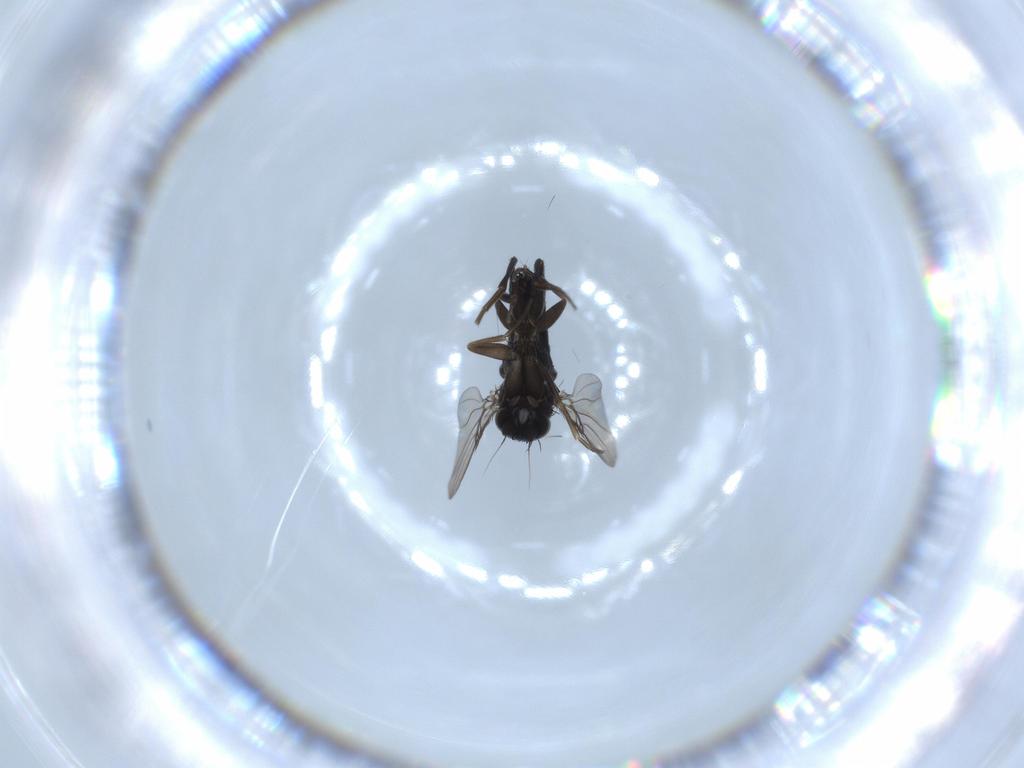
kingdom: Animalia
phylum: Arthropoda
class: Insecta
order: Diptera
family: Phoridae
